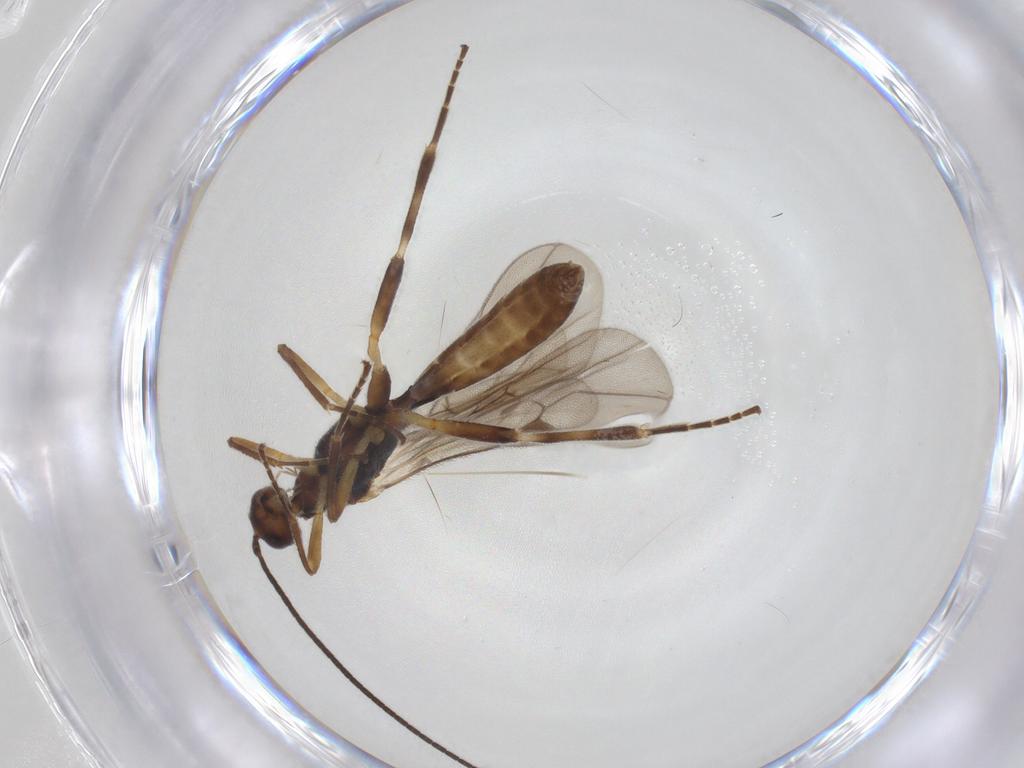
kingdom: Animalia
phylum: Arthropoda
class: Insecta
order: Hymenoptera
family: Braconidae
